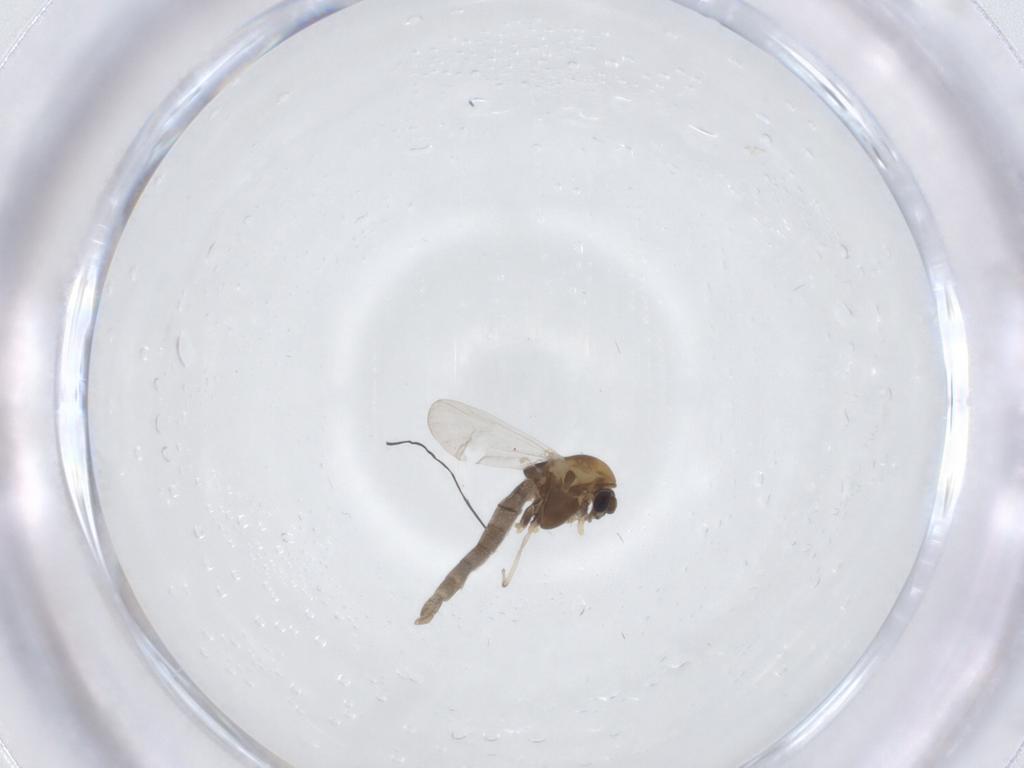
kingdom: Animalia
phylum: Arthropoda
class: Insecta
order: Diptera
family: Chironomidae
